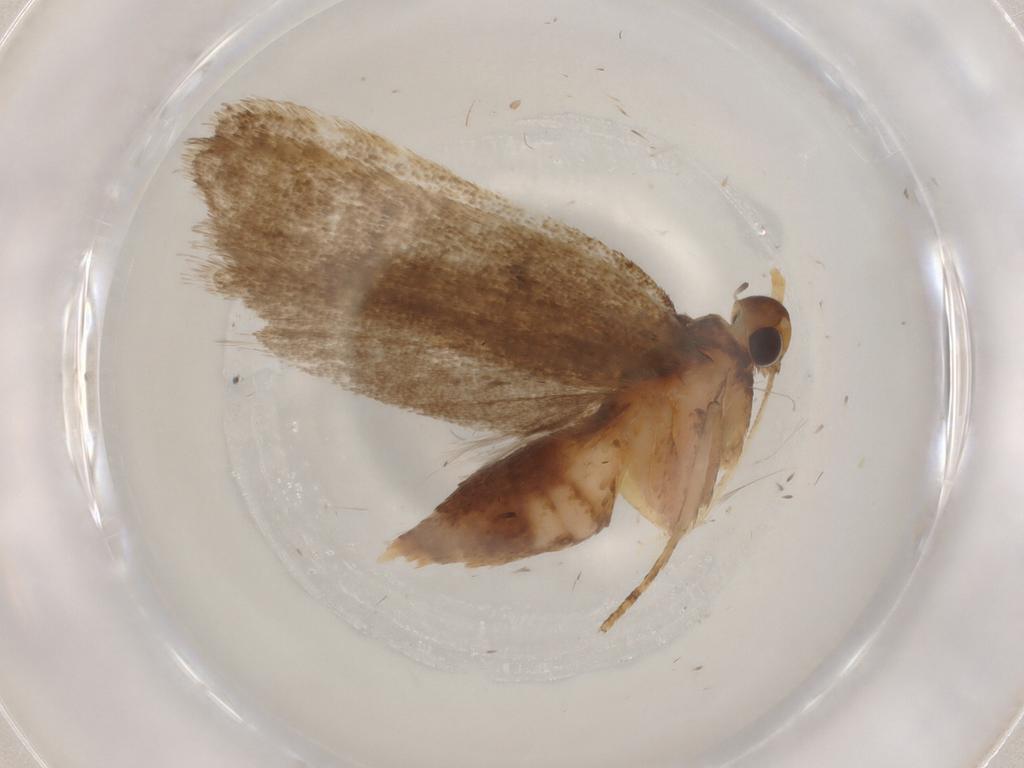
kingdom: Animalia
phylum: Arthropoda
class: Insecta
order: Lepidoptera
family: Lecithoceridae
